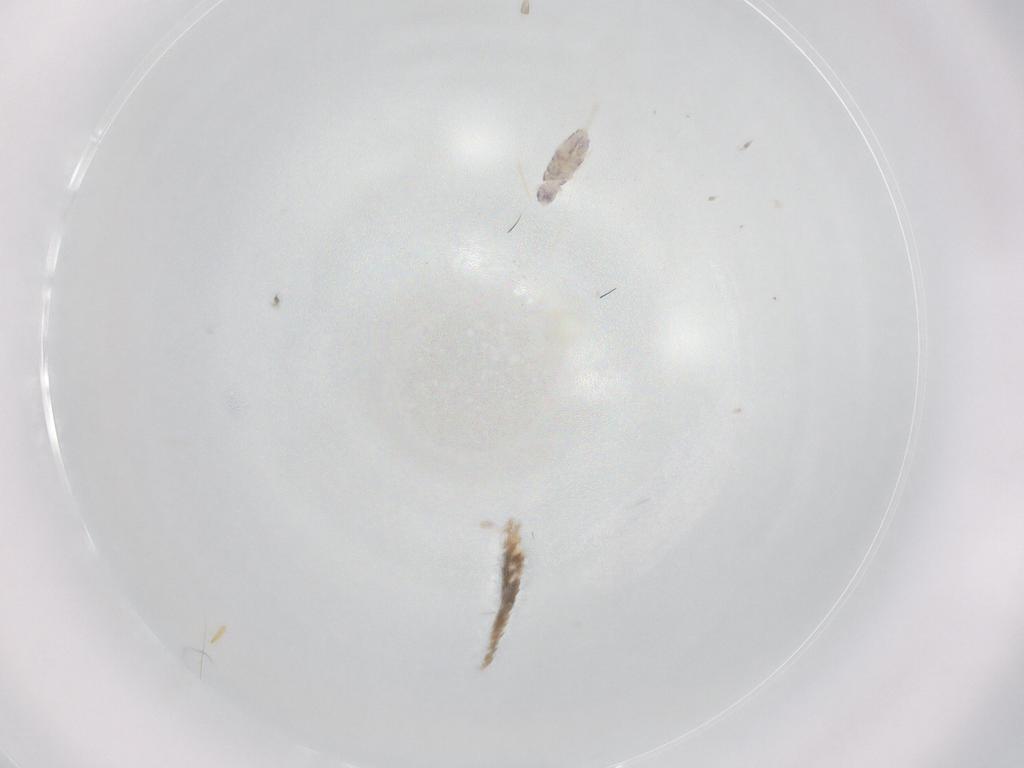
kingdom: Animalia
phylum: Arthropoda
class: Collembola
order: Entomobryomorpha
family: Entomobryidae
